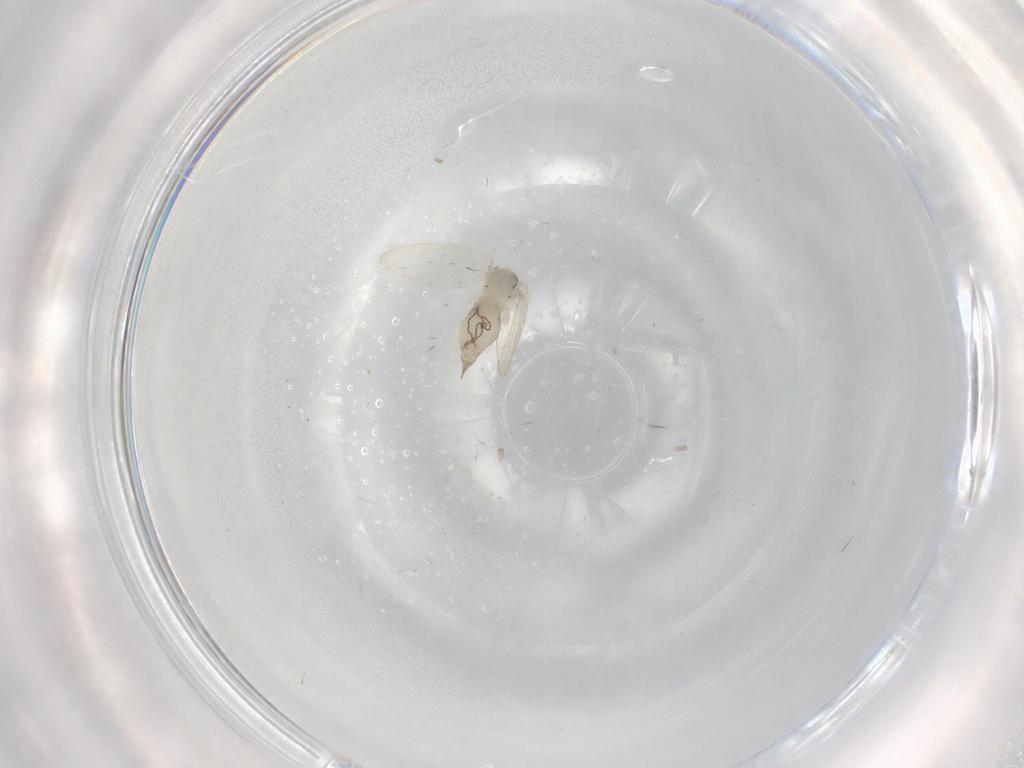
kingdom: Animalia
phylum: Arthropoda
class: Insecta
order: Diptera
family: Psychodidae
